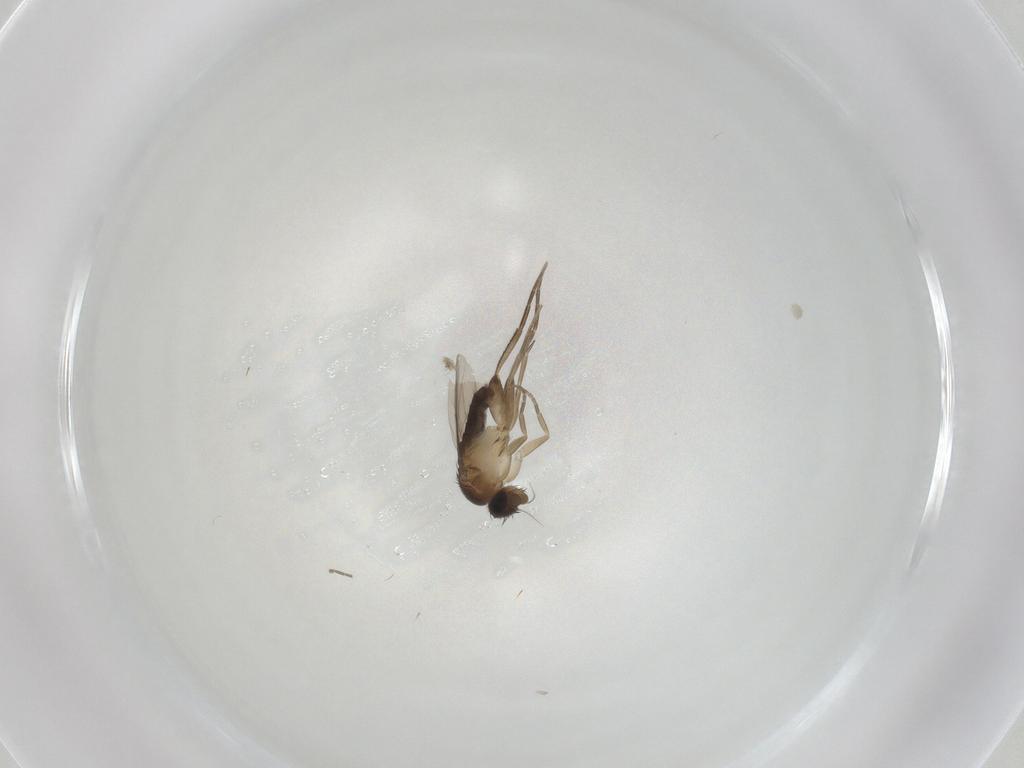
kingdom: Animalia
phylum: Arthropoda
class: Insecta
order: Diptera
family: Phoridae
